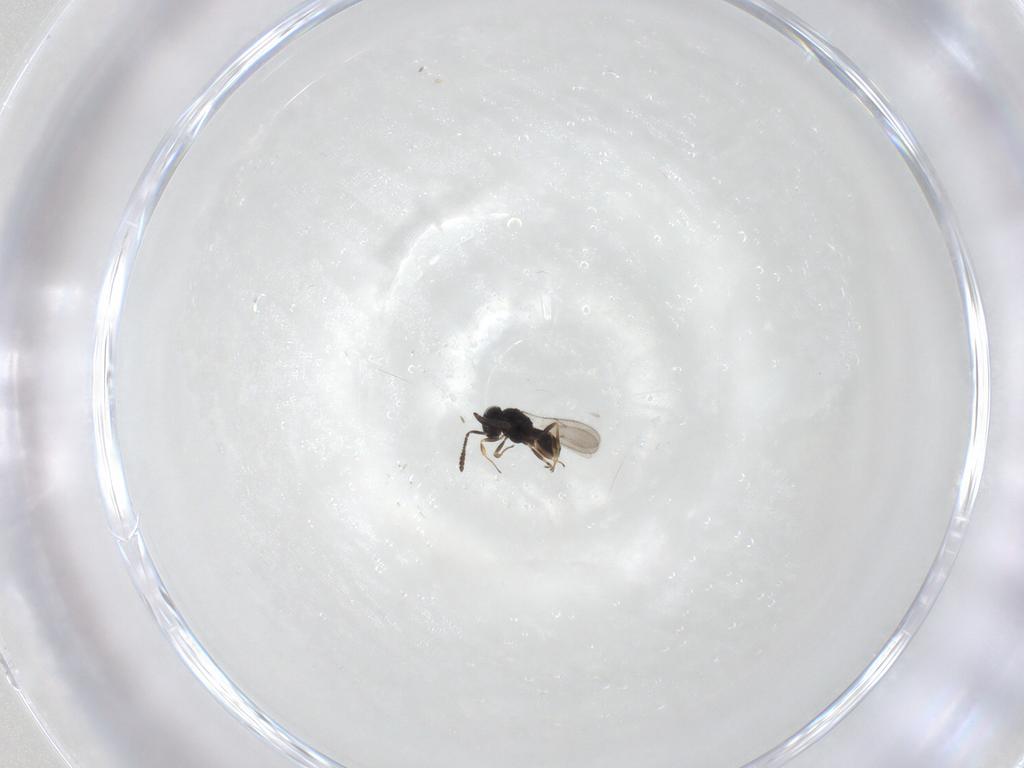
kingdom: Animalia
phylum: Arthropoda
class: Insecta
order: Hymenoptera
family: Scelionidae
